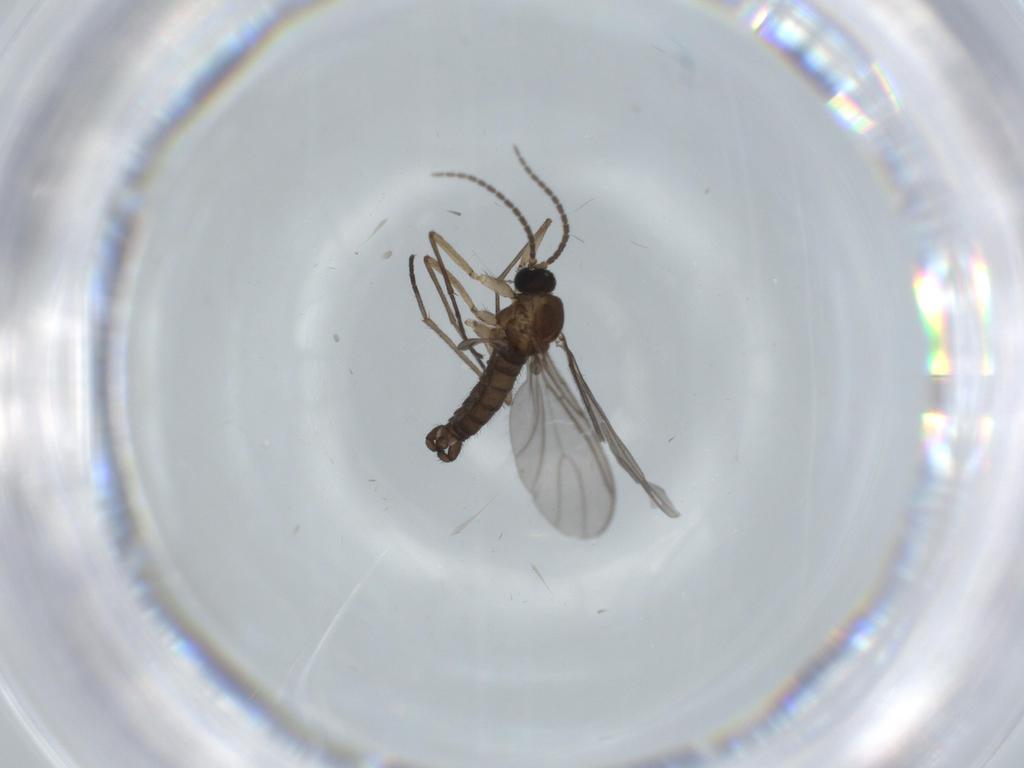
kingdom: Animalia
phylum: Arthropoda
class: Insecta
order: Diptera
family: Sciaridae
